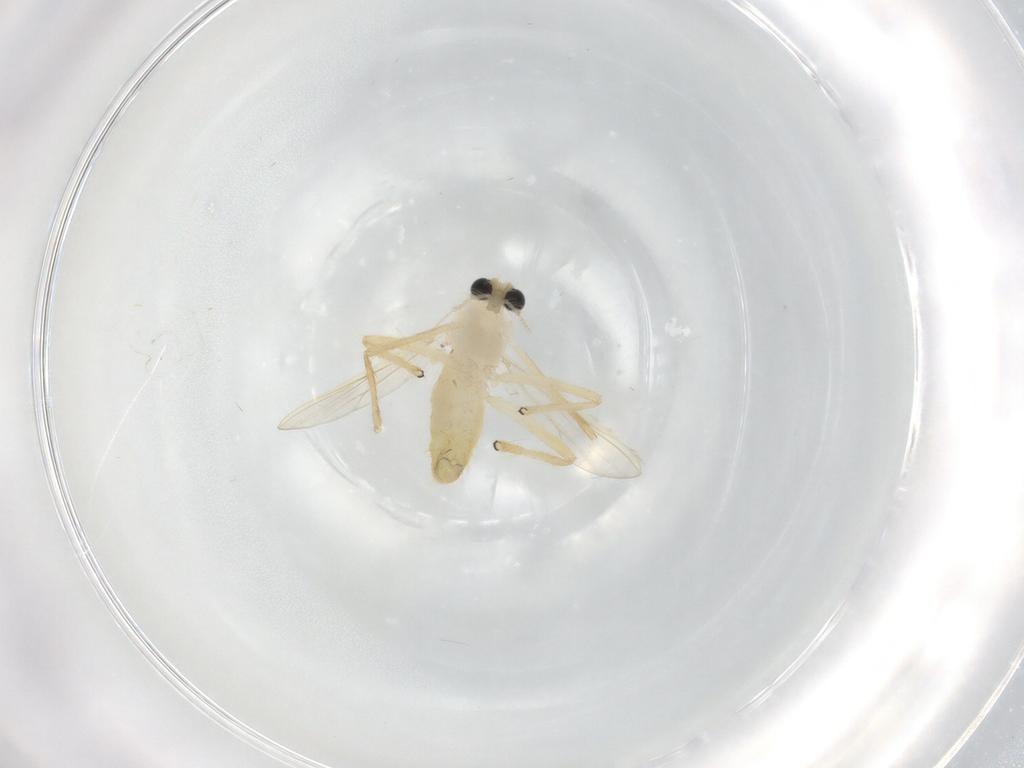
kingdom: Animalia
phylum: Arthropoda
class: Insecta
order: Diptera
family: Chironomidae
